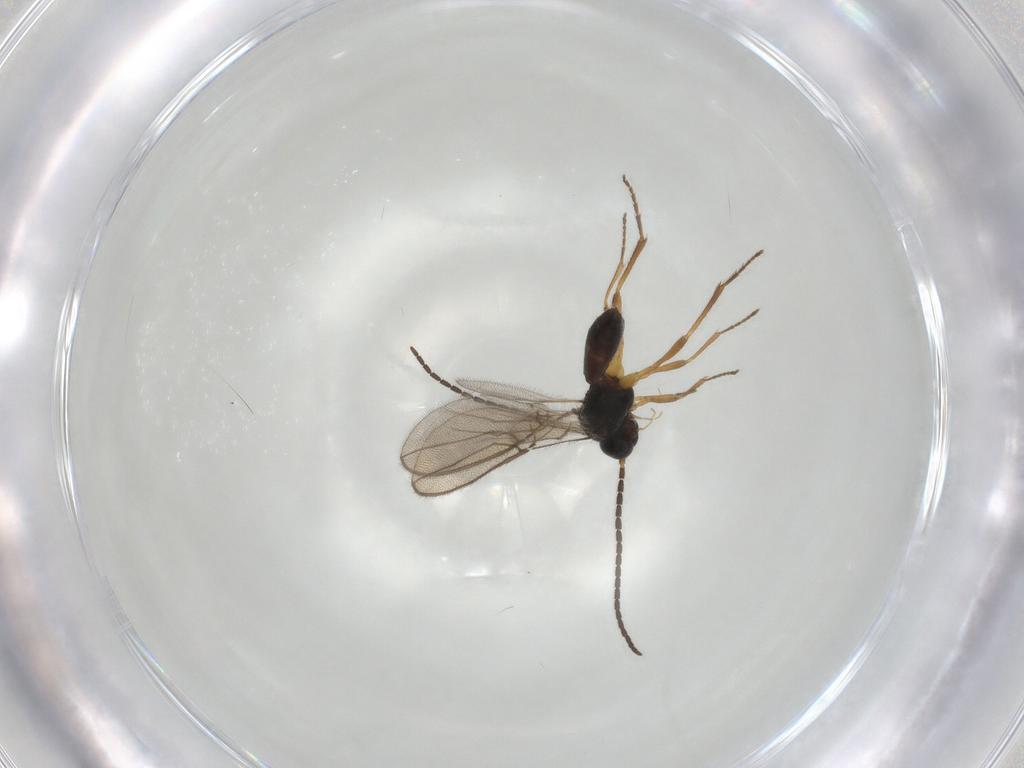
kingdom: Animalia
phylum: Arthropoda
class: Insecta
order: Hymenoptera
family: Braconidae
